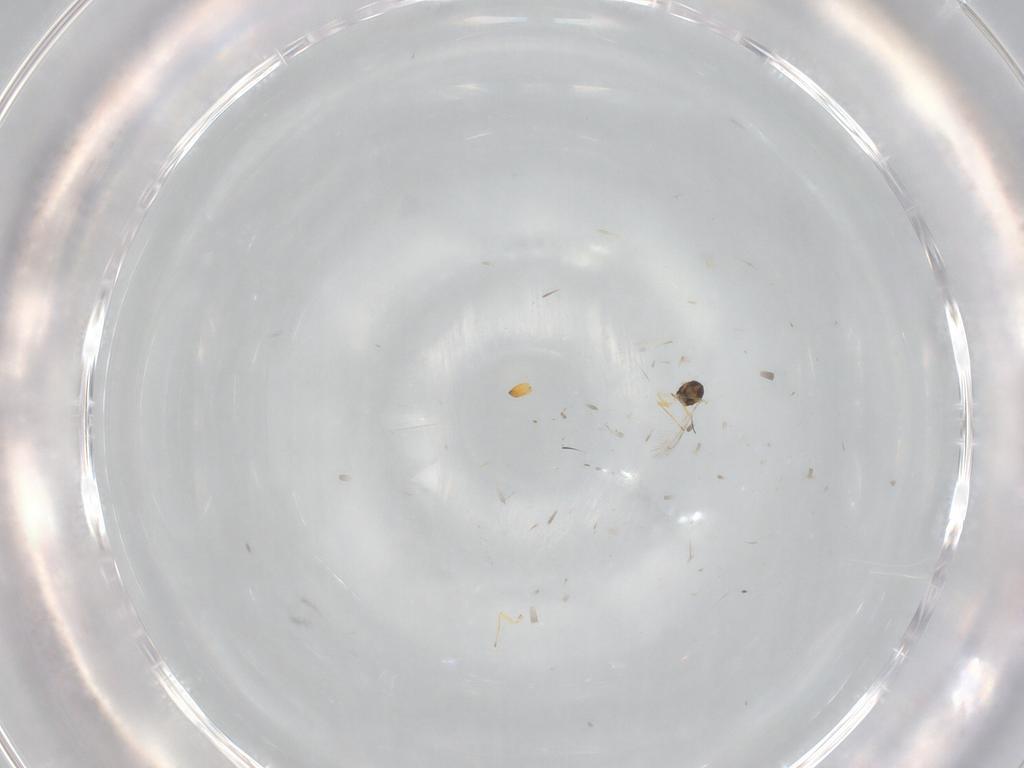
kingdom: Animalia
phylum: Arthropoda
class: Insecta
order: Hymenoptera
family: Eulophidae
